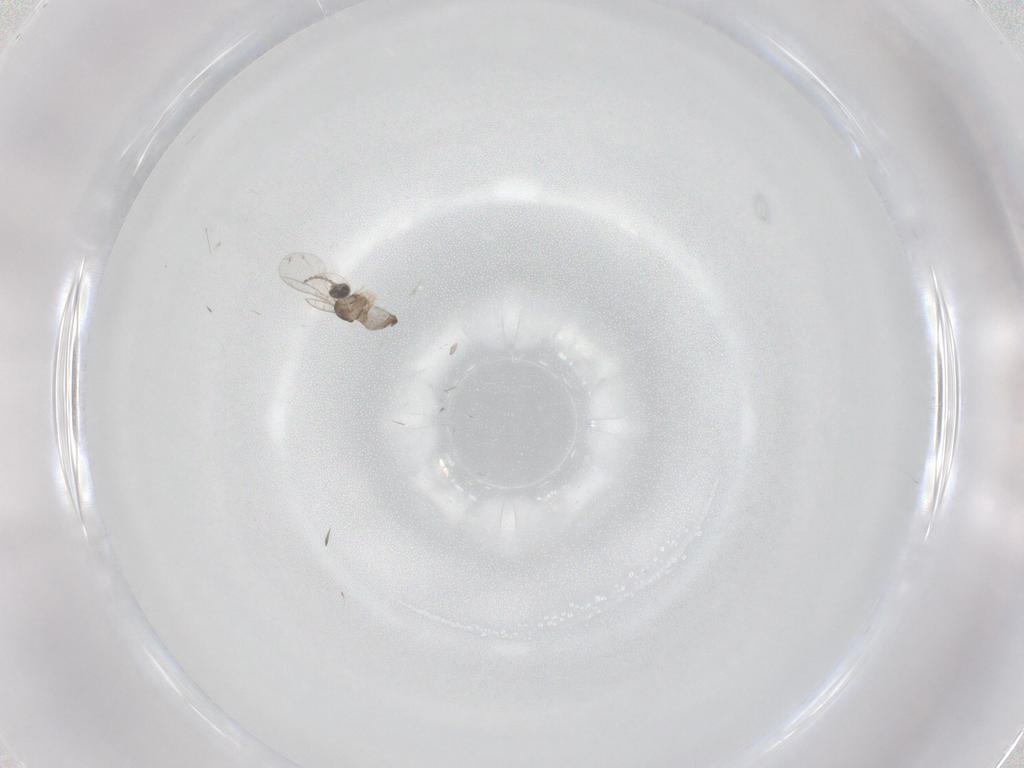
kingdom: Animalia
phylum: Arthropoda
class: Insecta
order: Diptera
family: Cecidomyiidae
